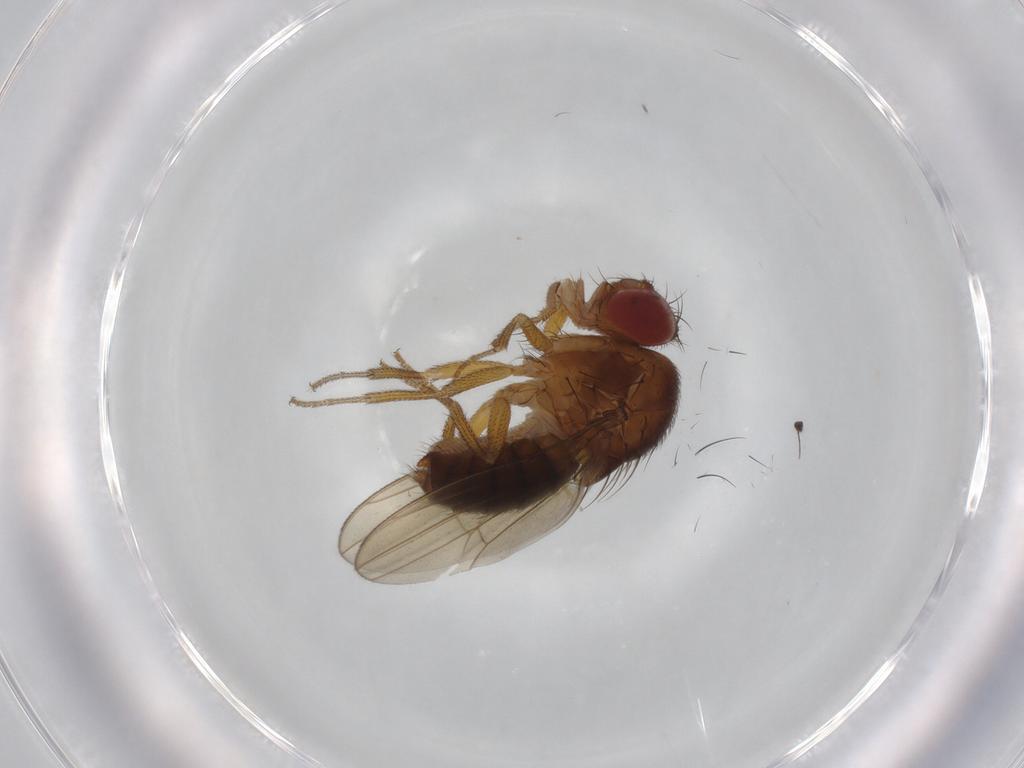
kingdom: Animalia
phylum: Arthropoda
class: Insecta
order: Diptera
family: Drosophilidae
